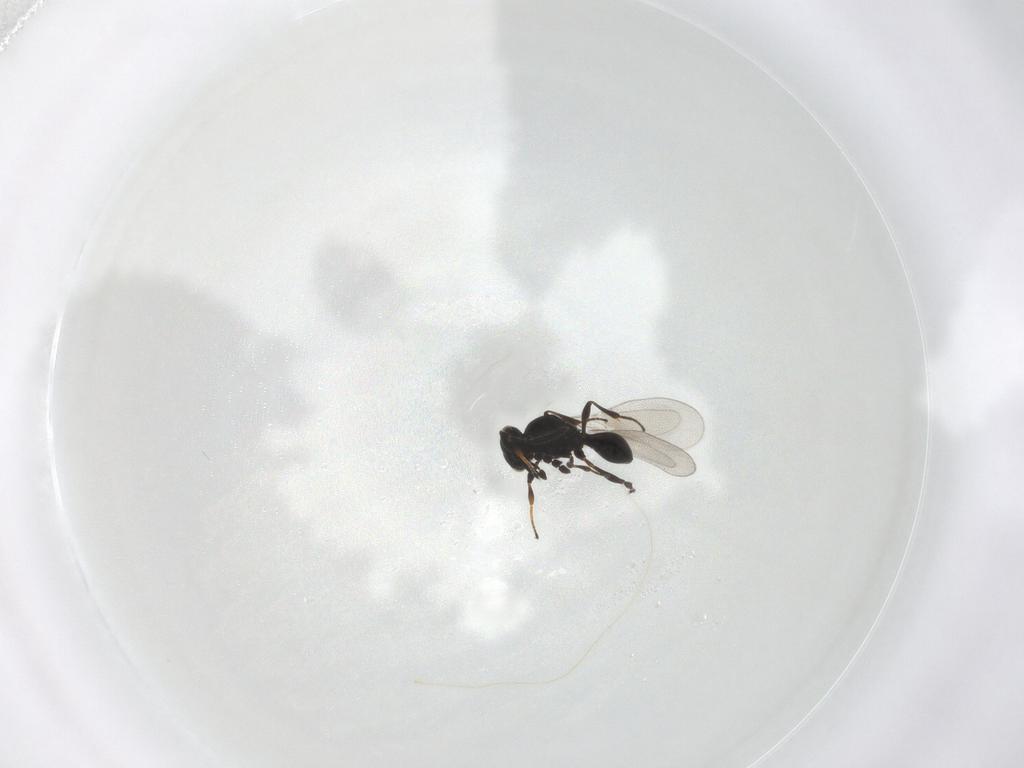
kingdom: Animalia
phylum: Arthropoda
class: Insecta
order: Hymenoptera
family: Platygastridae
